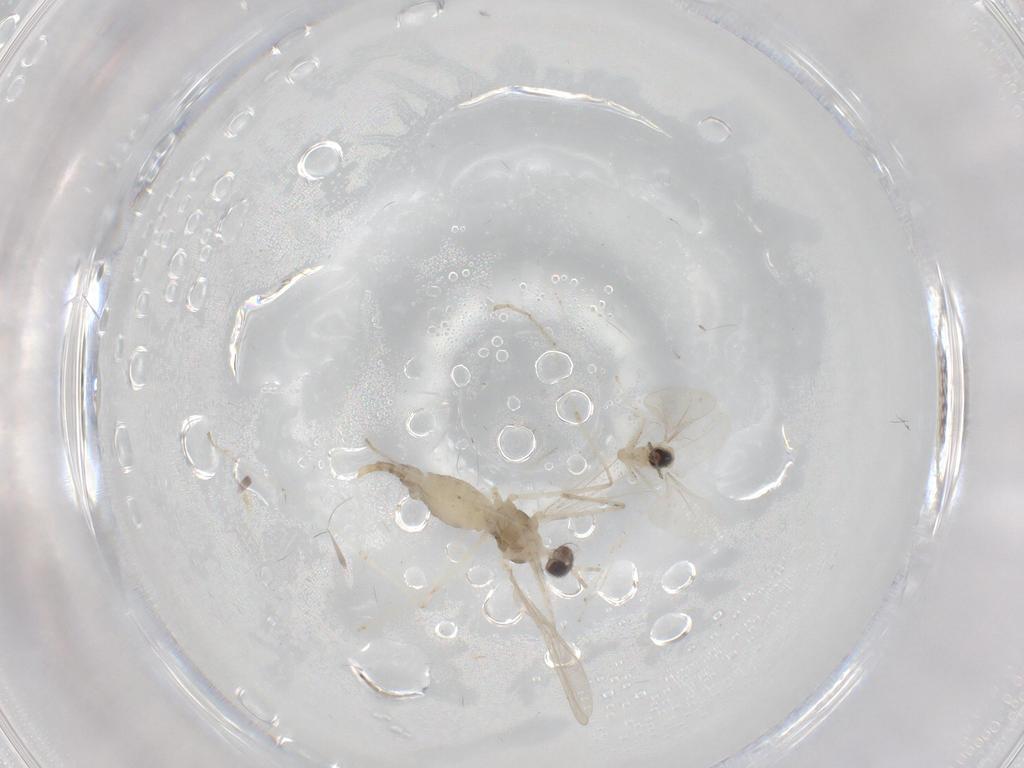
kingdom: Animalia
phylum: Arthropoda
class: Insecta
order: Diptera
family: Cecidomyiidae
